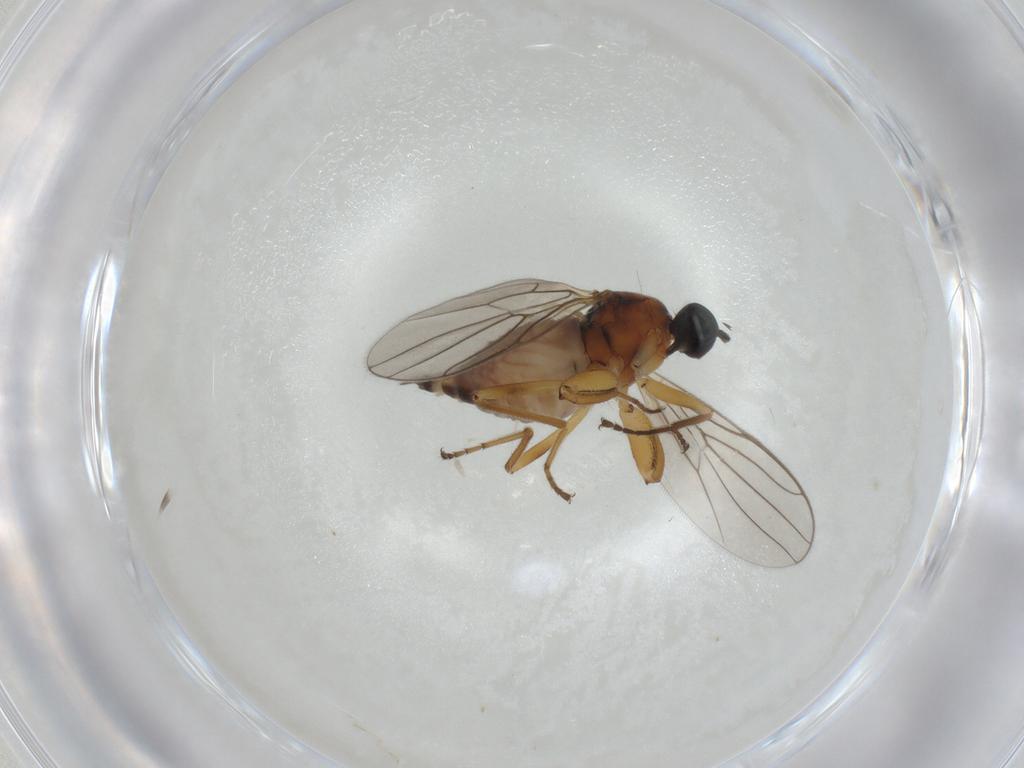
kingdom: Animalia
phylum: Arthropoda
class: Insecta
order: Diptera
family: Hybotidae
